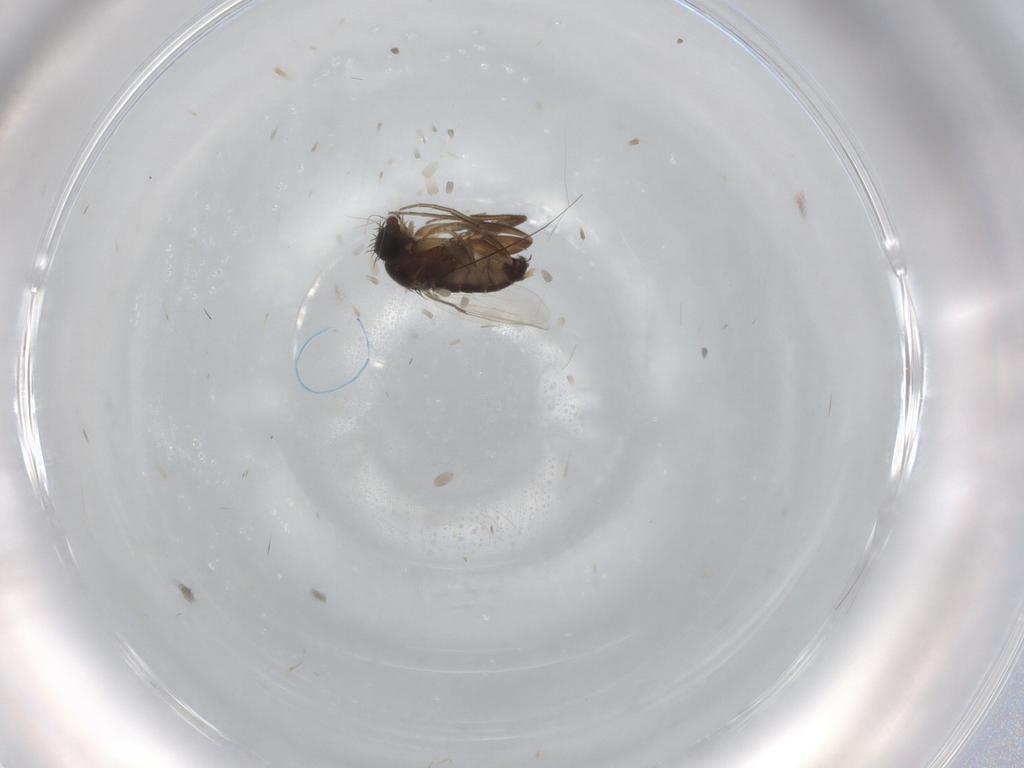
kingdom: Animalia
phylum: Arthropoda
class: Insecta
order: Diptera
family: Phoridae
